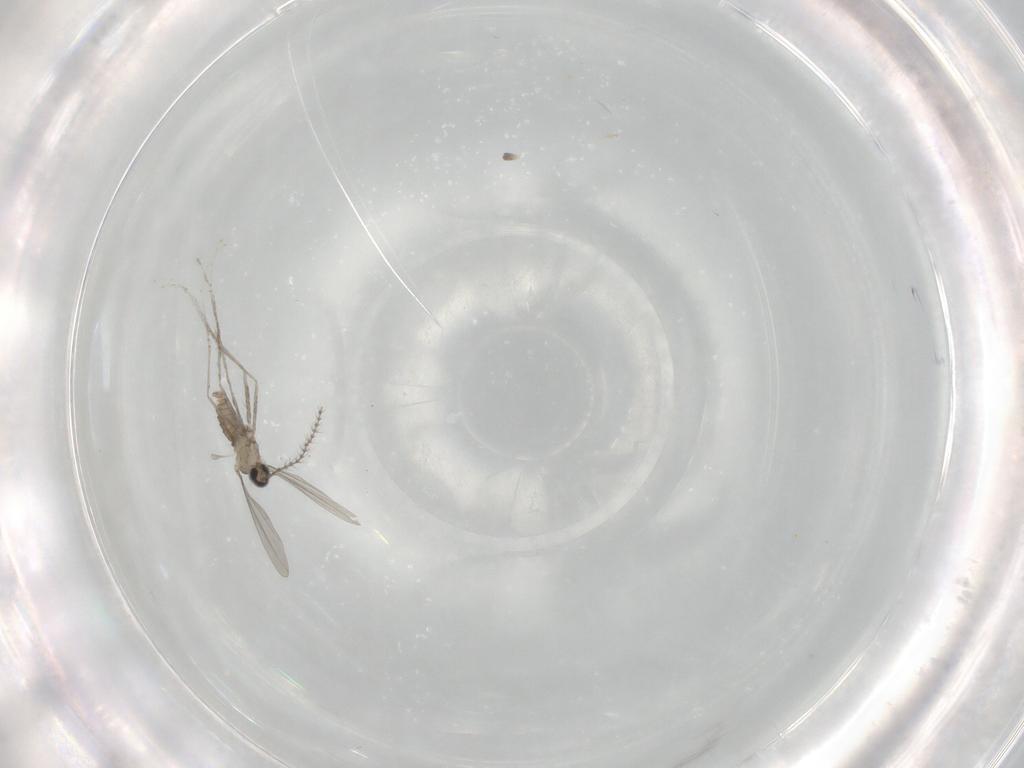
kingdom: Animalia
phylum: Arthropoda
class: Insecta
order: Diptera
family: Cecidomyiidae
